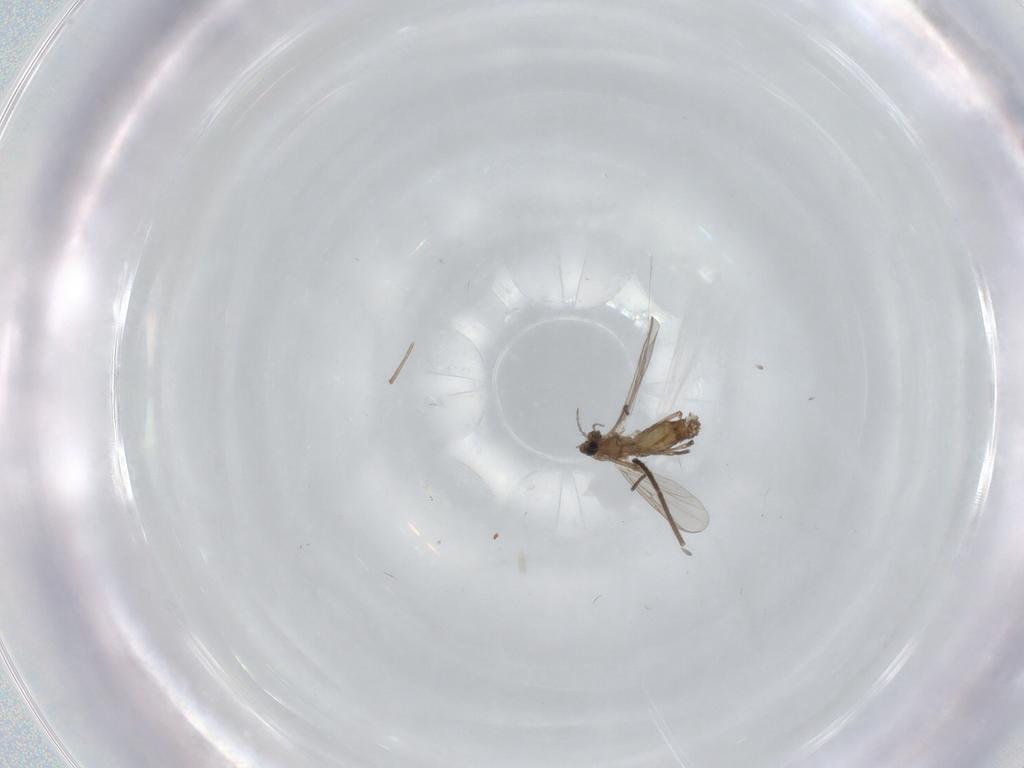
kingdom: Animalia
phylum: Arthropoda
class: Insecta
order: Diptera
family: Chironomidae
